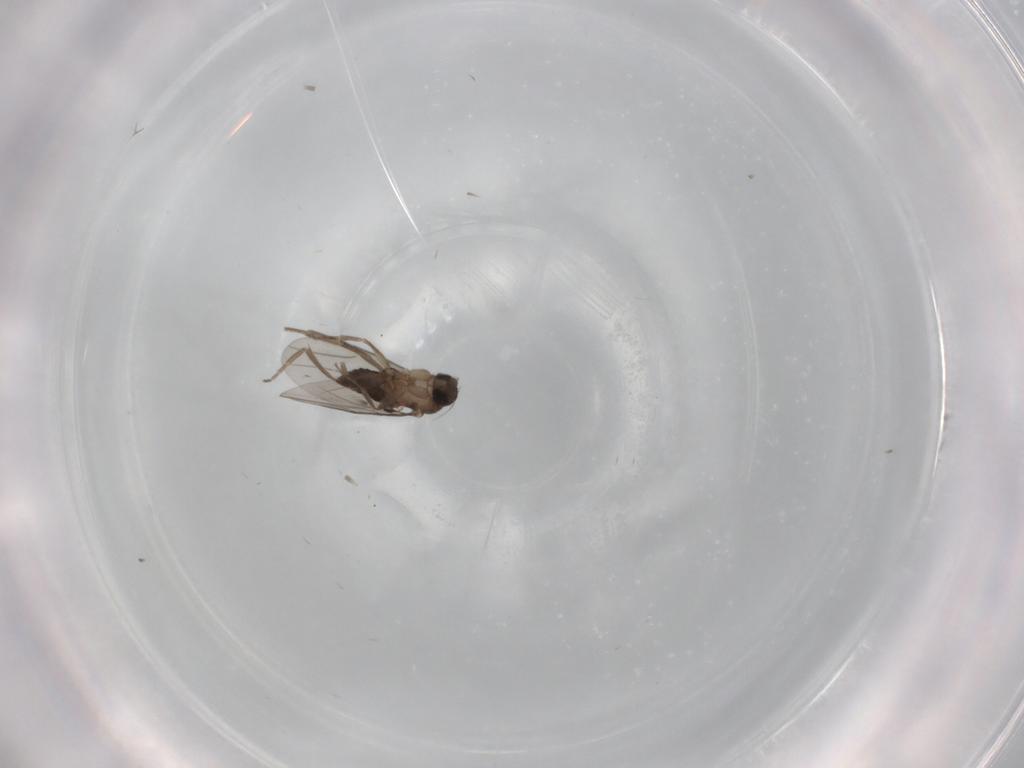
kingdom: Animalia
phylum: Arthropoda
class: Insecta
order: Diptera
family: Phoridae
